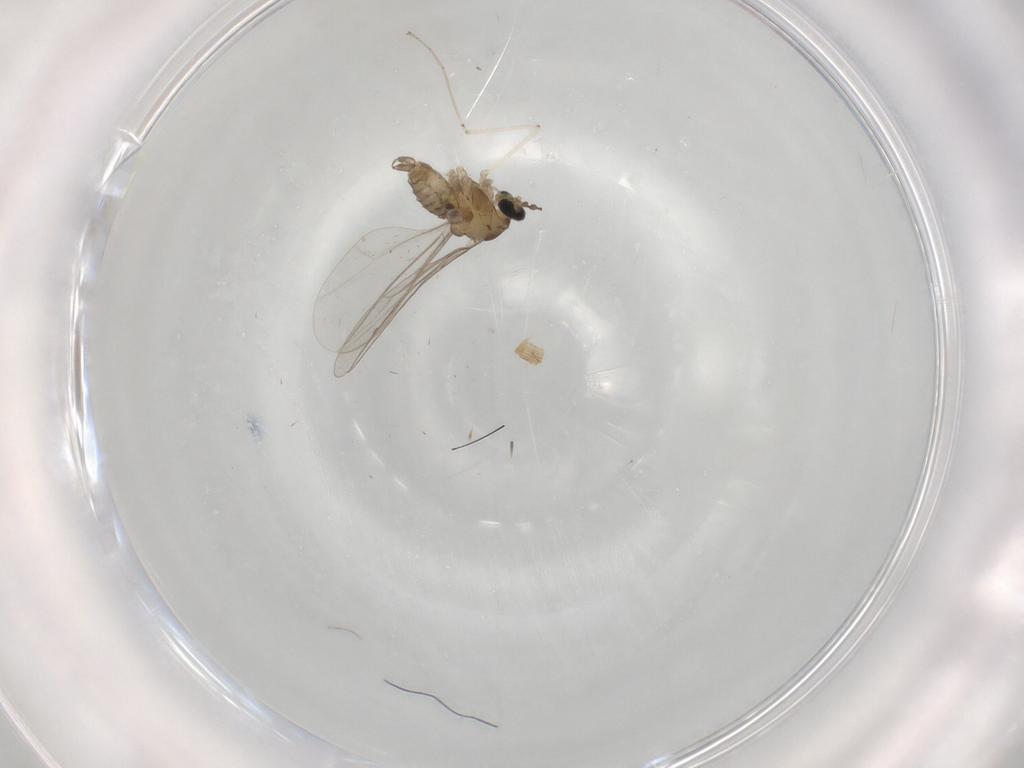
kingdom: Animalia
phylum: Arthropoda
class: Insecta
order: Diptera
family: Cecidomyiidae
